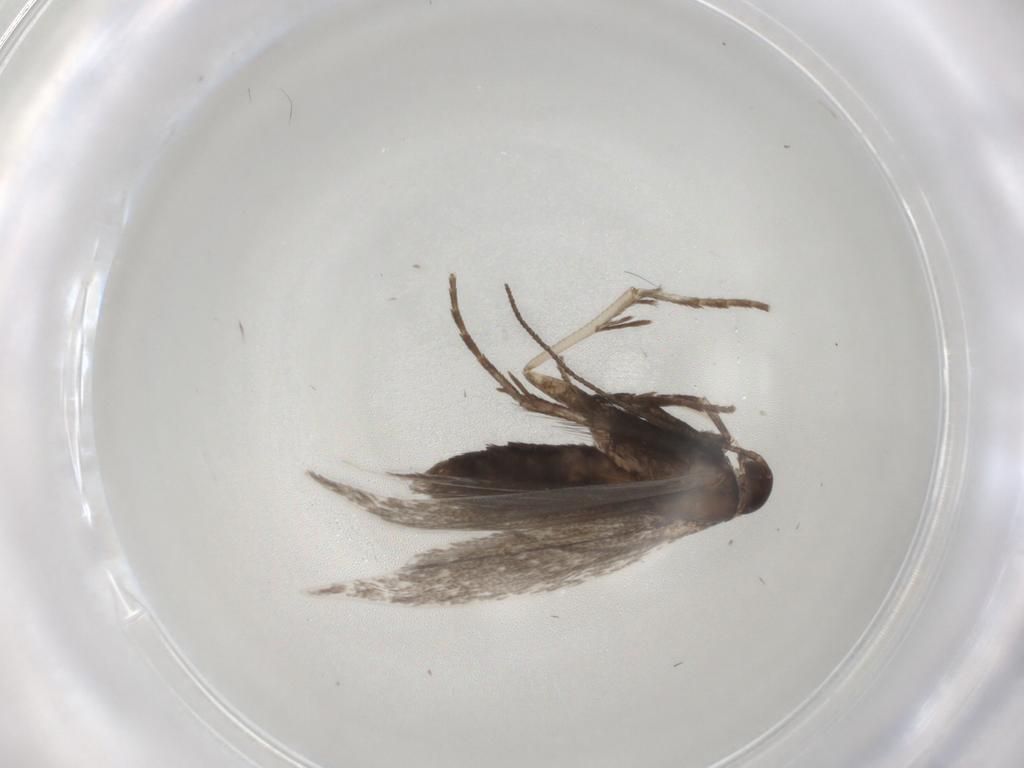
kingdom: Animalia
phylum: Arthropoda
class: Insecta
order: Lepidoptera
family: Gelechiidae
